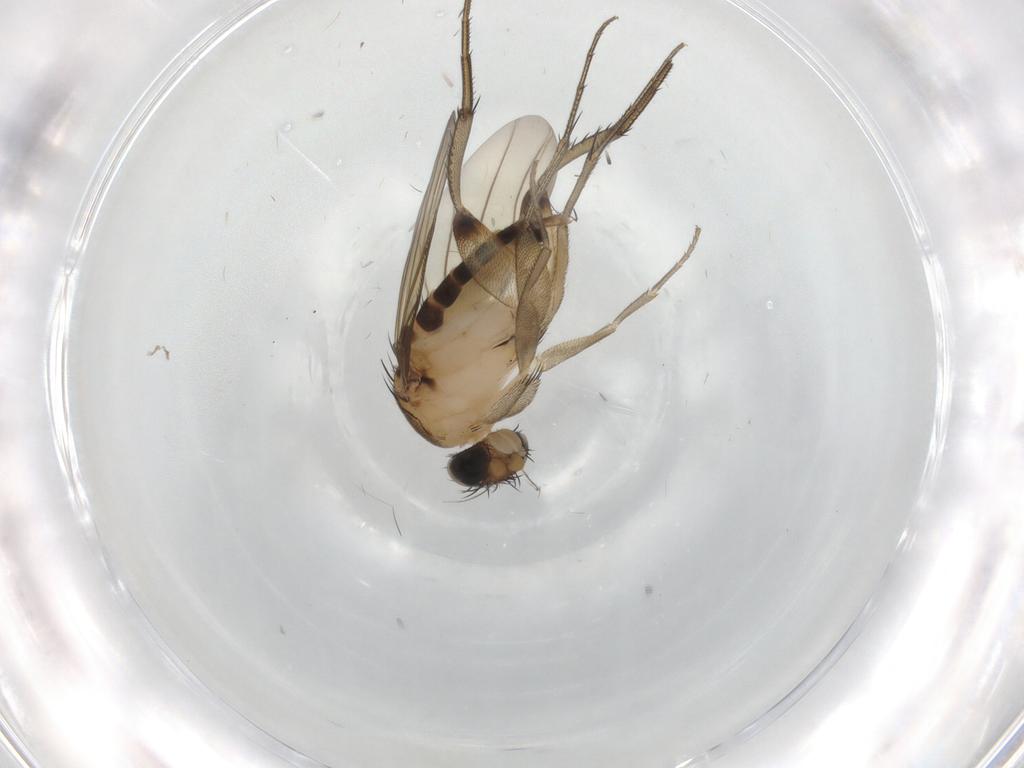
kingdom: Animalia
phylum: Arthropoda
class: Insecta
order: Diptera
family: Phoridae
